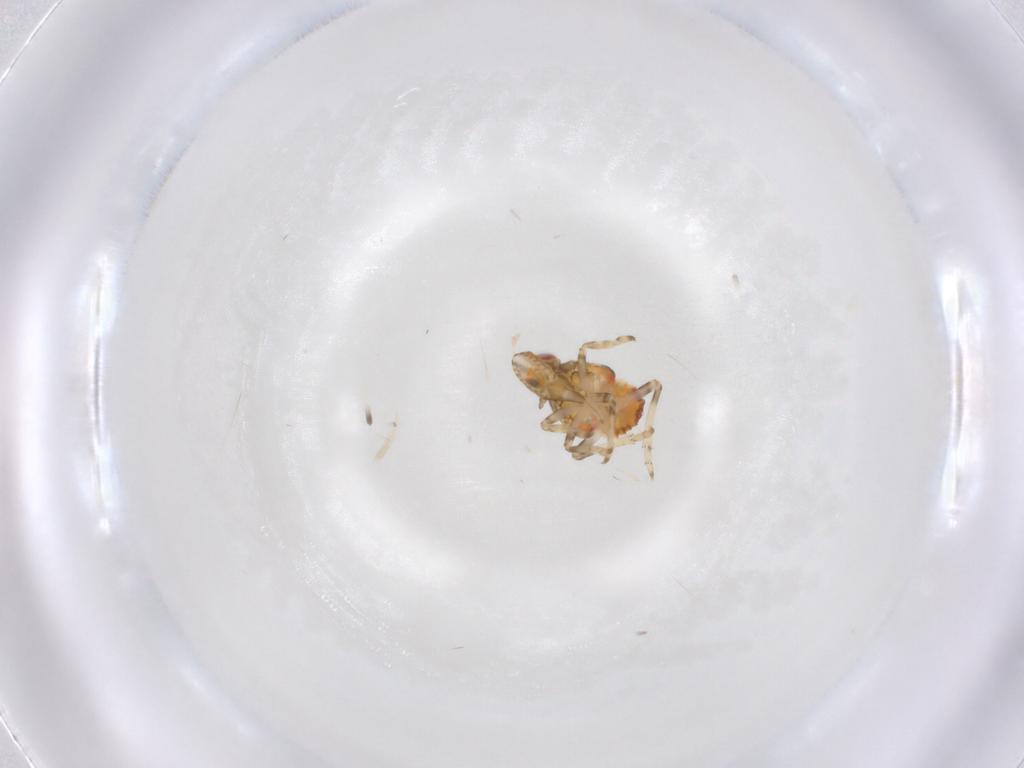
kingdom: Animalia
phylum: Arthropoda
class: Insecta
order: Hemiptera
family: Tropiduchidae
